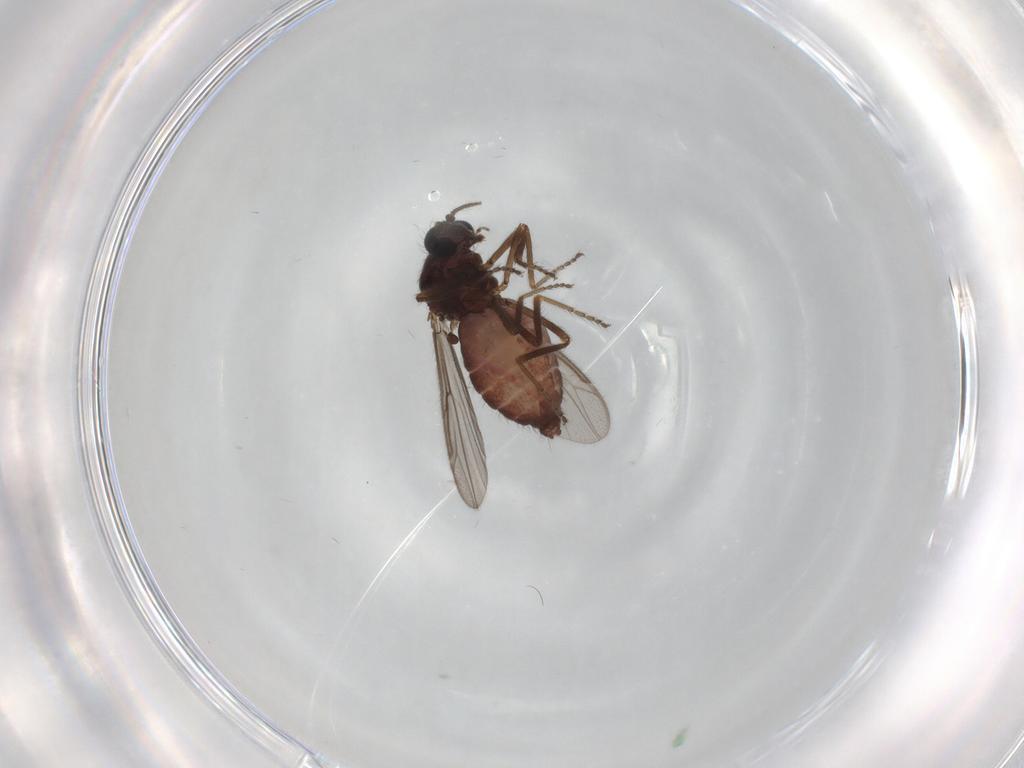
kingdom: Animalia
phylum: Arthropoda
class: Insecta
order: Diptera
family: Ceratopogonidae
